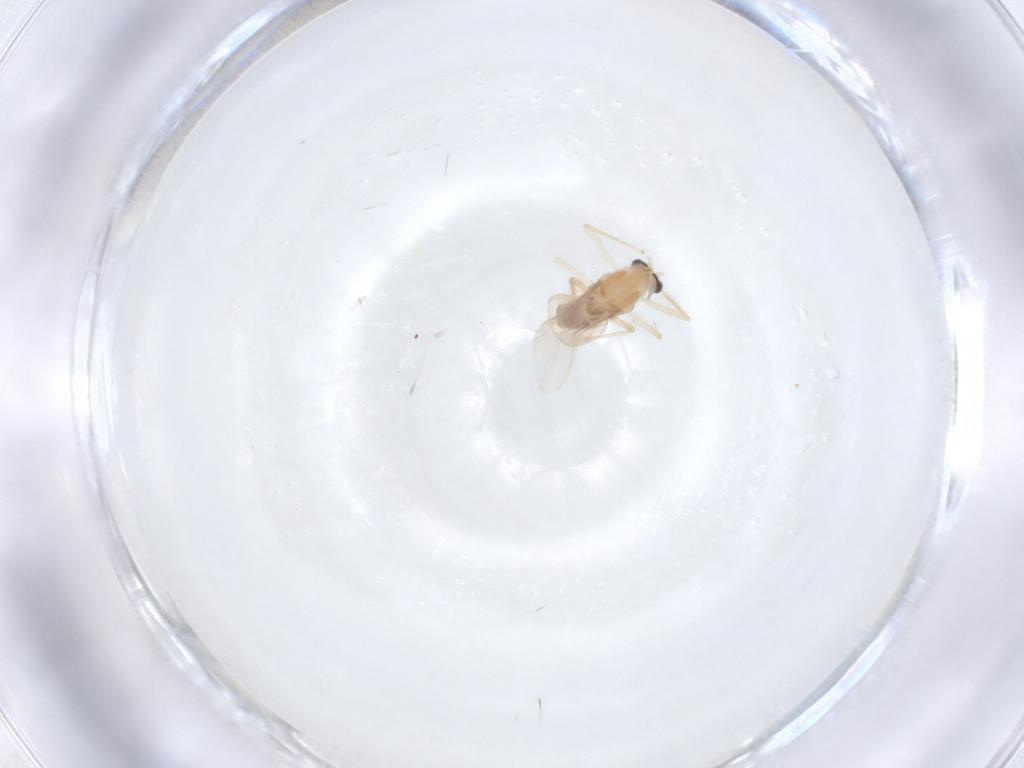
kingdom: Animalia
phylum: Arthropoda
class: Insecta
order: Diptera
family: Chironomidae
